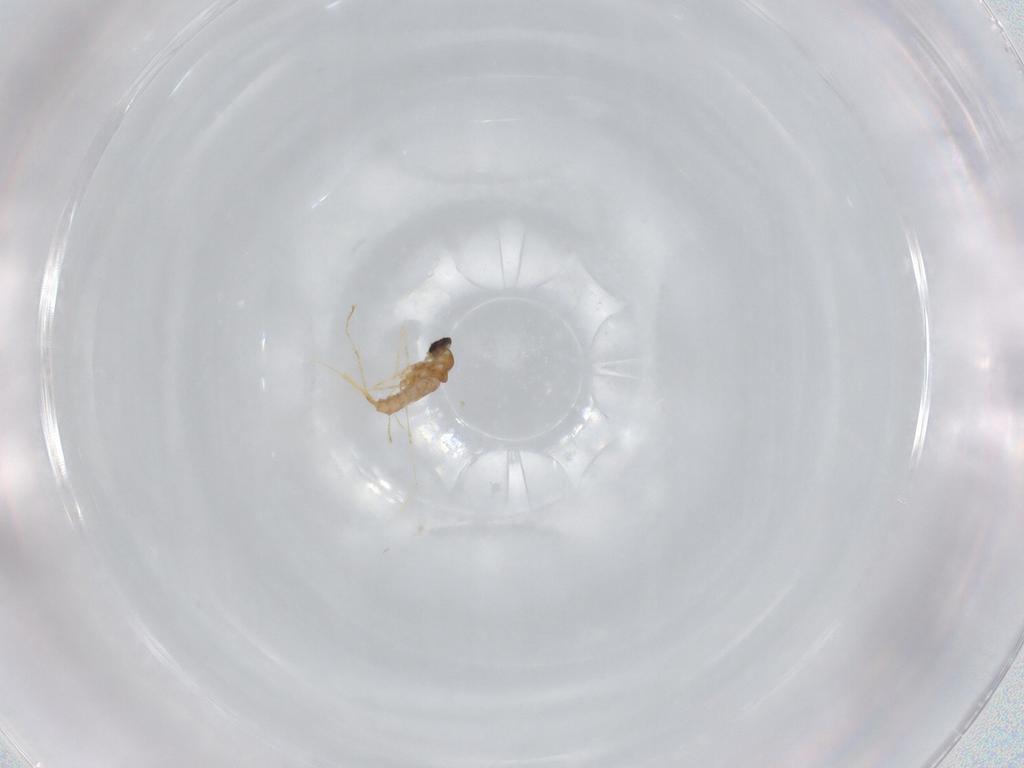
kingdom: Animalia
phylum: Arthropoda
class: Insecta
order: Diptera
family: Cecidomyiidae
